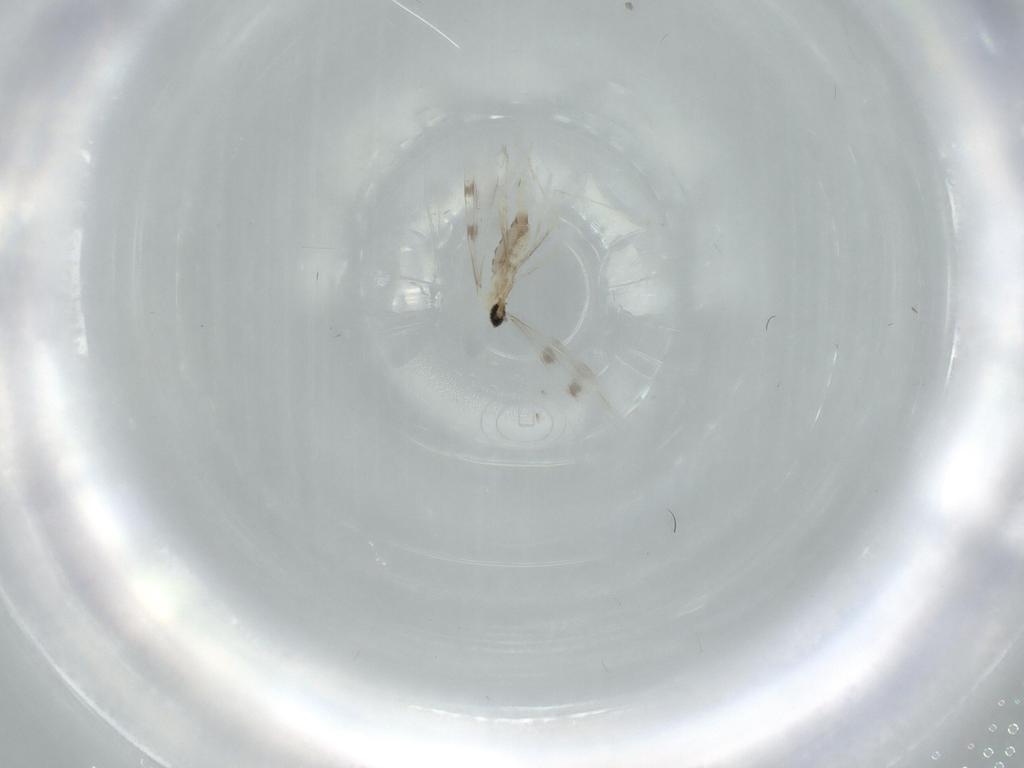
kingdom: Animalia
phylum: Arthropoda
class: Insecta
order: Diptera
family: Cecidomyiidae
